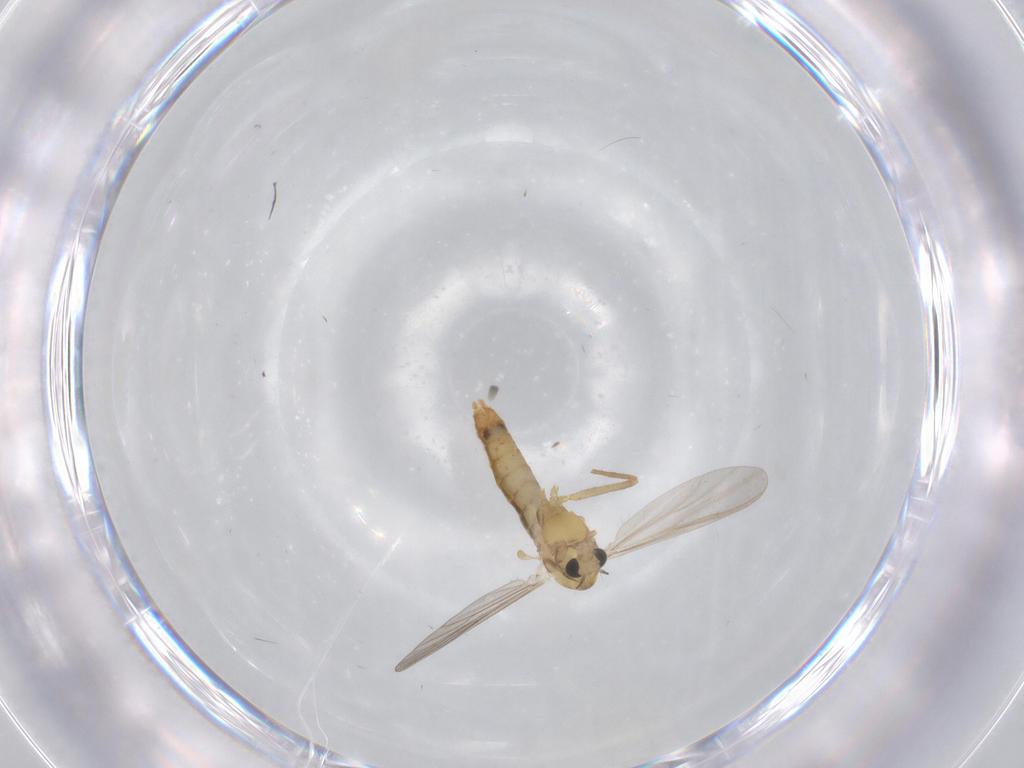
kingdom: Animalia
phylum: Arthropoda
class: Insecta
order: Diptera
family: Chironomidae
